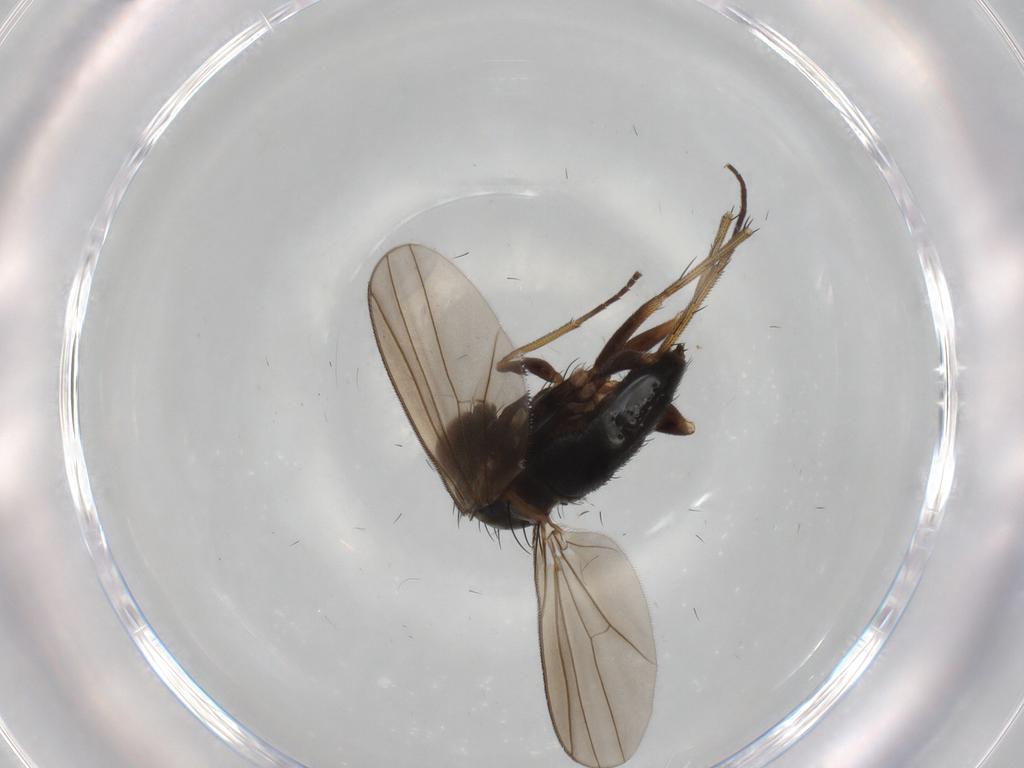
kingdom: Animalia
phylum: Arthropoda
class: Insecta
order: Diptera
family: Dolichopodidae
